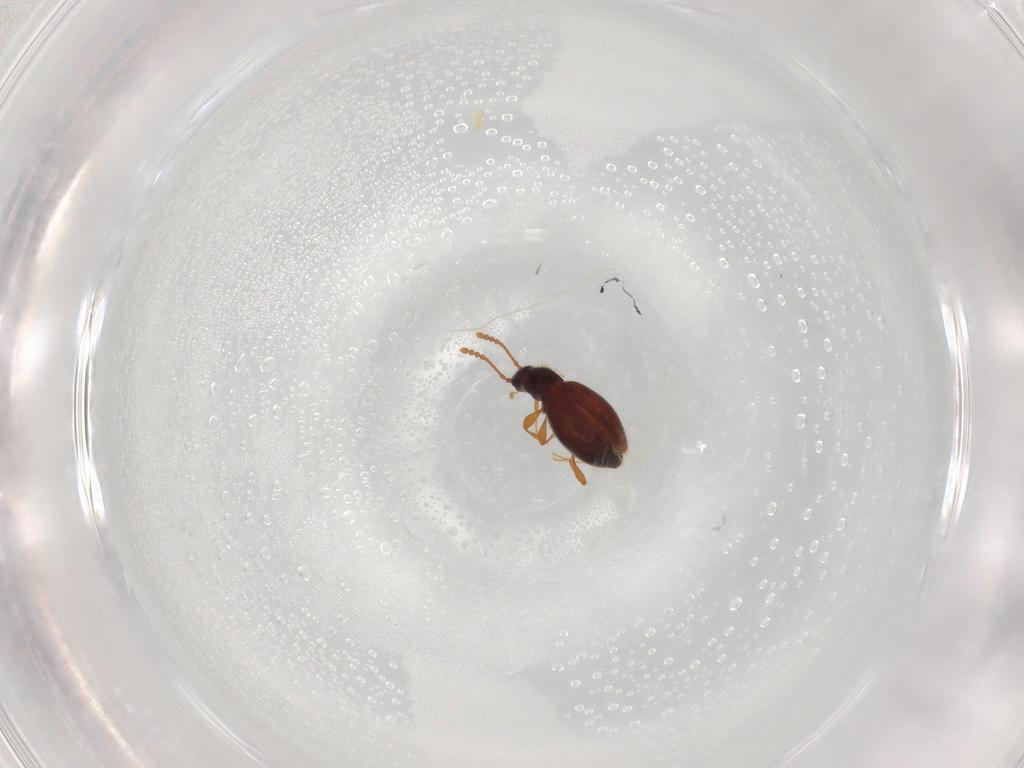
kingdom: Animalia
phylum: Arthropoda
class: Insecta
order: Coleoptera
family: Staphylinidae
